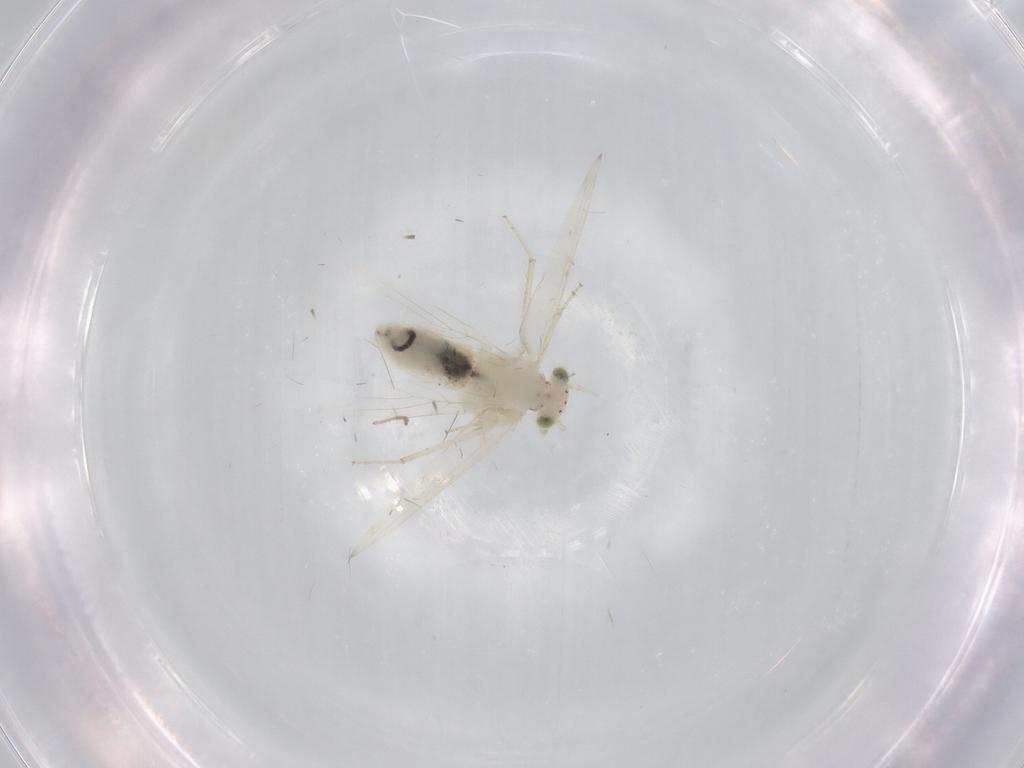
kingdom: Animalia
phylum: Arthropoda
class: Insecta
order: Psocodea
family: Lepidopsocidae
